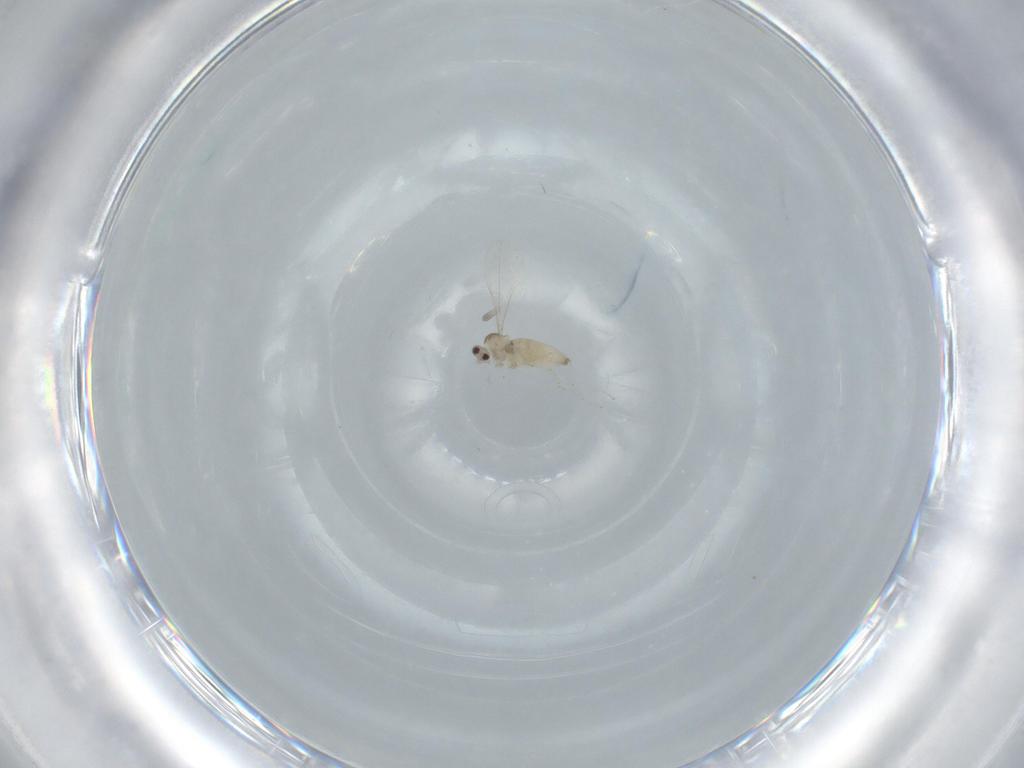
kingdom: Animalia
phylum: Arthropoda
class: Insecta
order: Diptera
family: Cecidomyiidae
